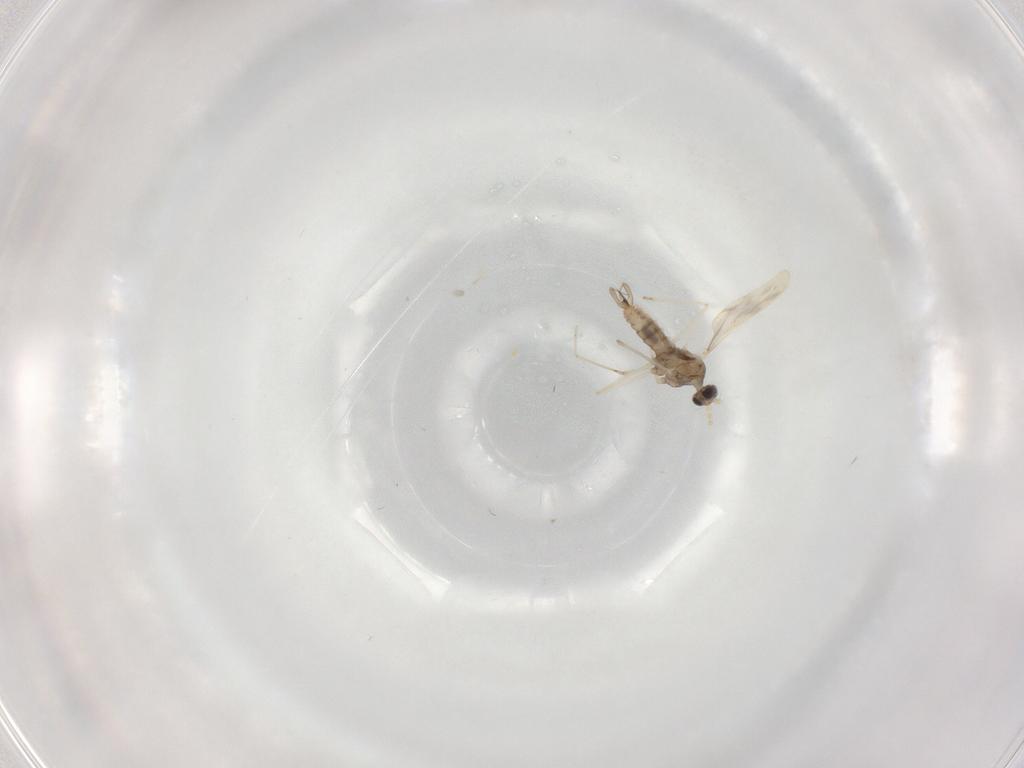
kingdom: Animalia
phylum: Arthropoda
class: Insecta
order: Diptera
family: Cecidomyiidae
